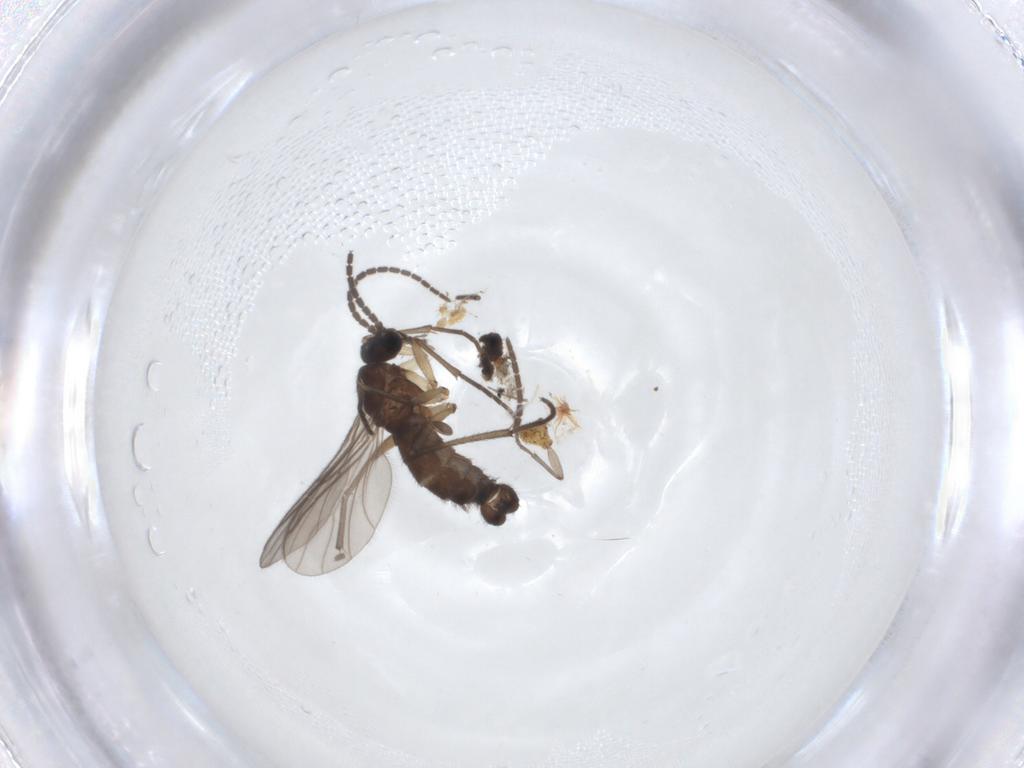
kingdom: Animalia
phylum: Arthropoda
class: Insecta
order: Diptera
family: Sciaridae
